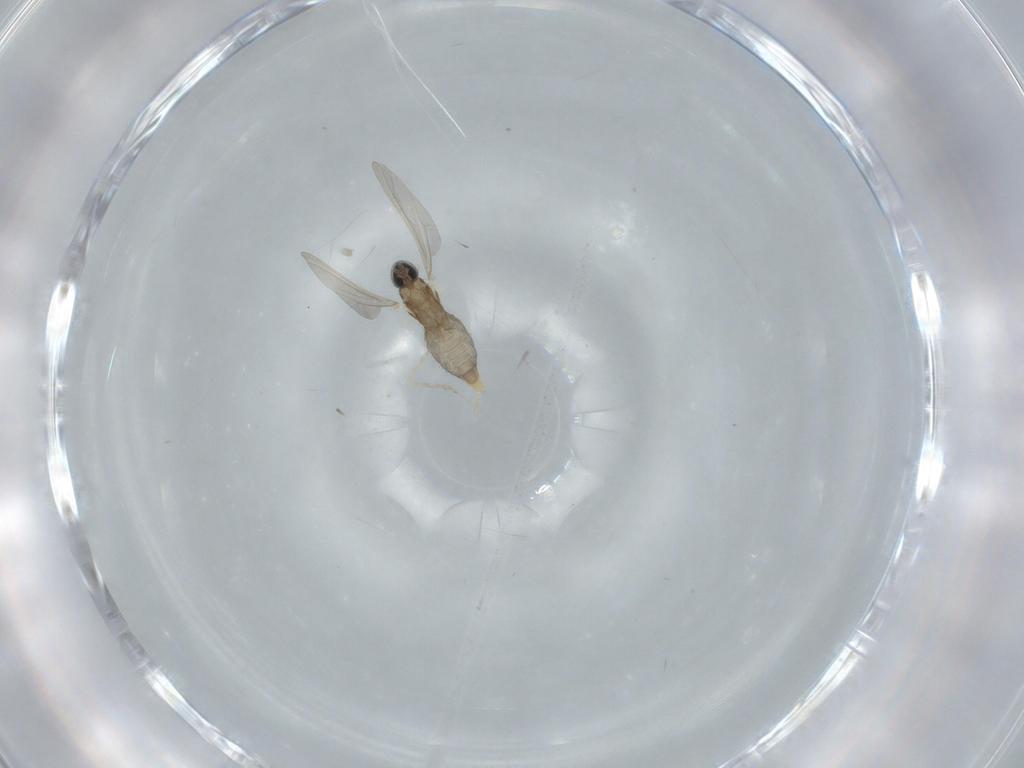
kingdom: Animalia
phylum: Arthropoda
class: Insecta
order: Diptera
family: Cecidomyiidae
